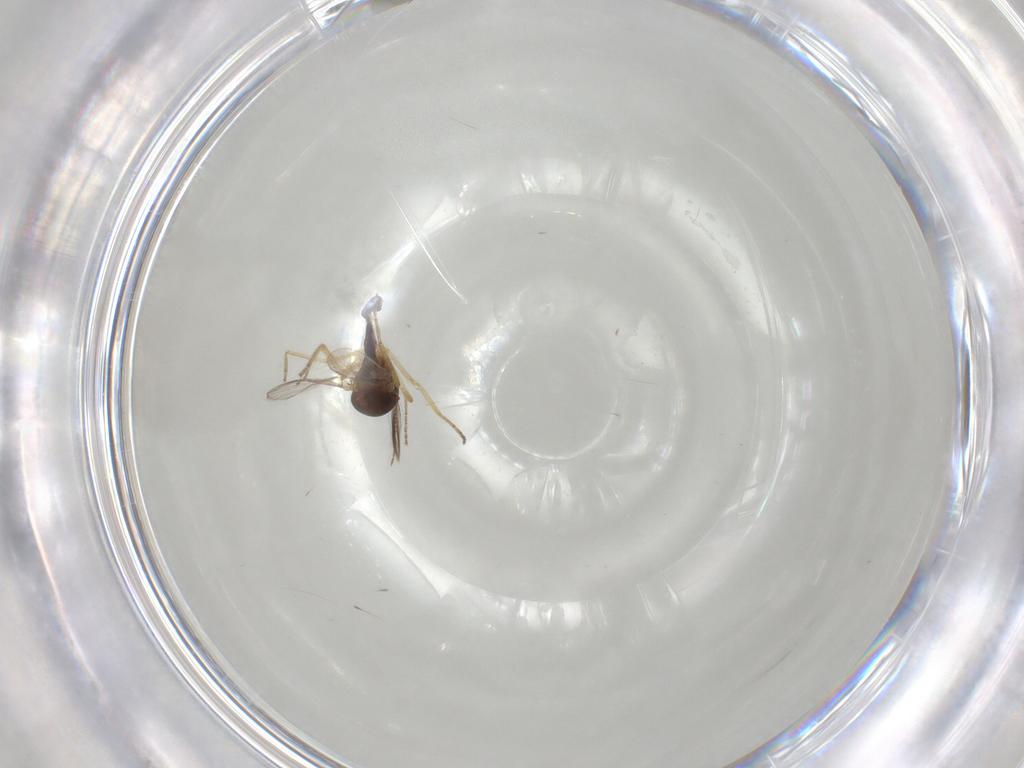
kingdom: Animalia
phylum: Arthropoda
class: Insecta
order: Diptera
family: Ceratopogonidae
